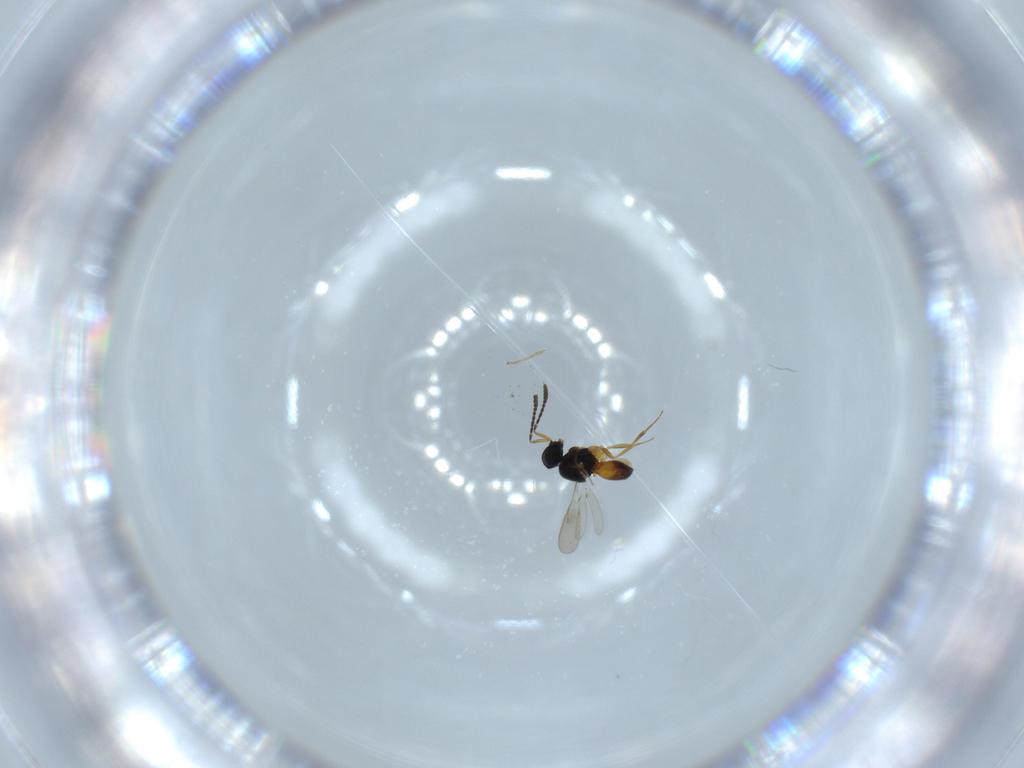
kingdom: Animalia
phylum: Arthropoda
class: Insecta
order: Hymenoptera
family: Scelionidae
